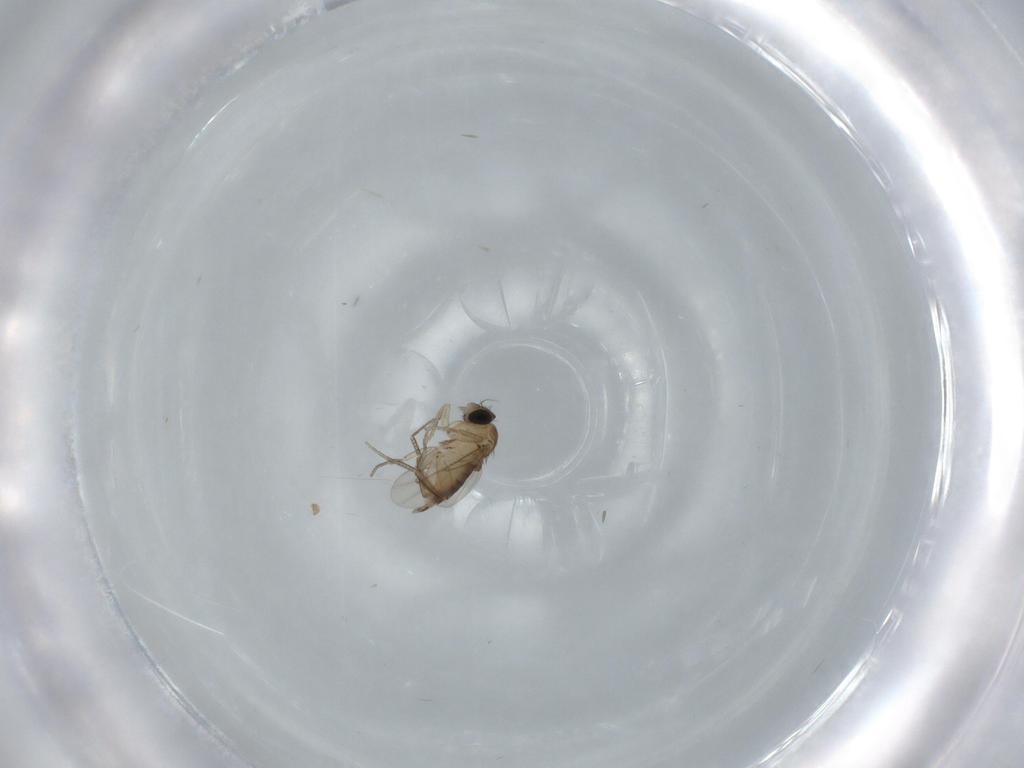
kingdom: Animalia
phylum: Arthropoda
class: Insecta
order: Diptera
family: Phoridae
